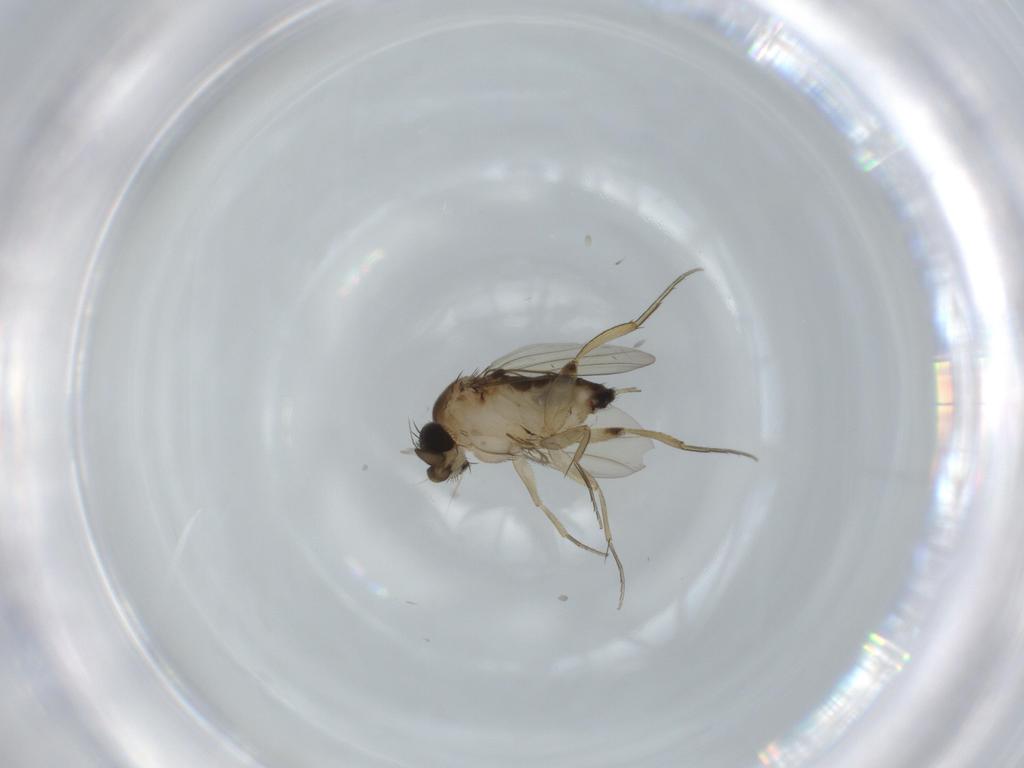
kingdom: Animalia
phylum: Arthropoda
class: Insecta
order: Diptera
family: Phoridae
